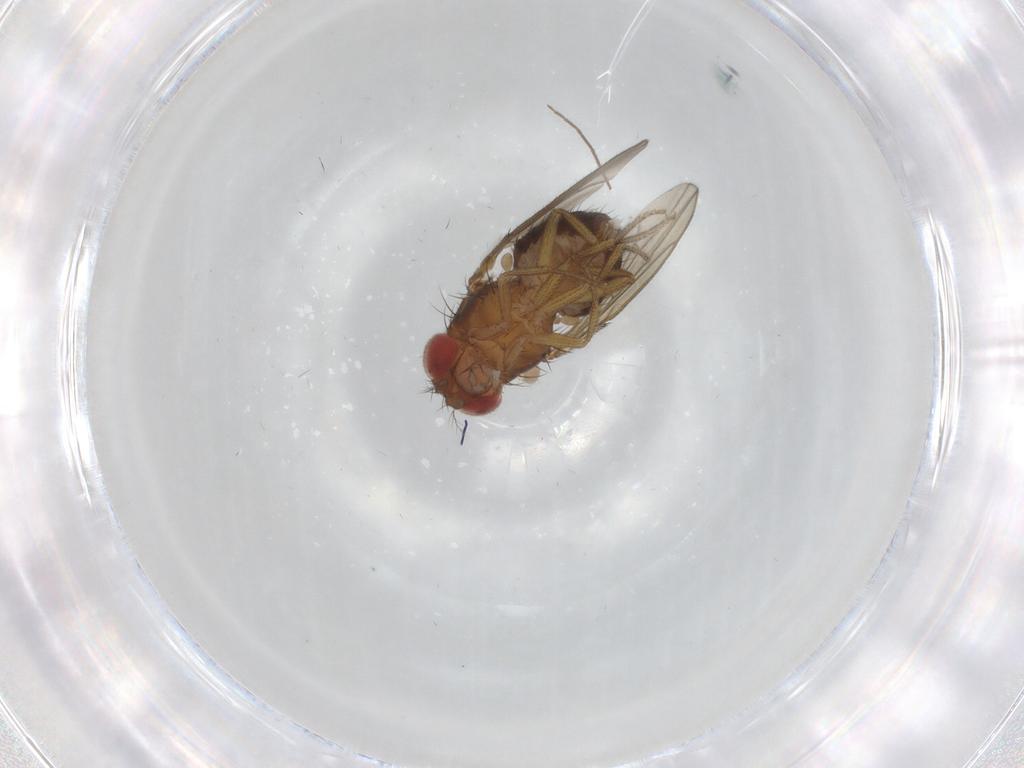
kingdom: Animalia
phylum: Arthropoda
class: Insecta
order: Diptera
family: Drosophilidae
